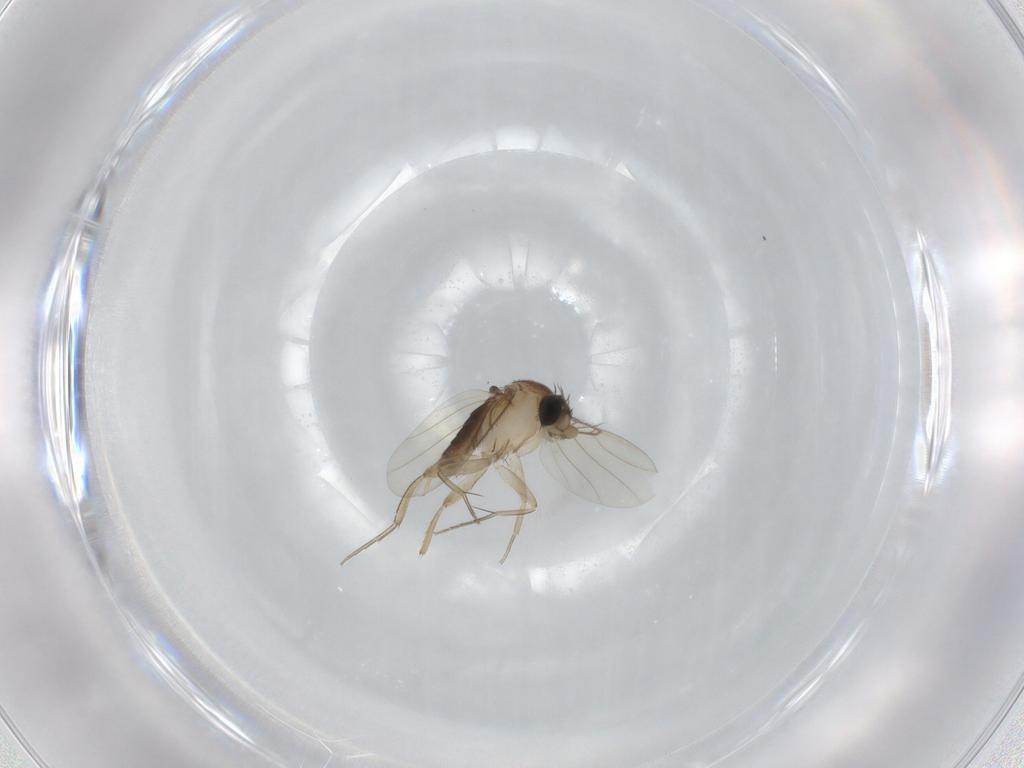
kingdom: Animalia
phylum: Arthropoda
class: Insecta
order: Diptera
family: Phoridae
